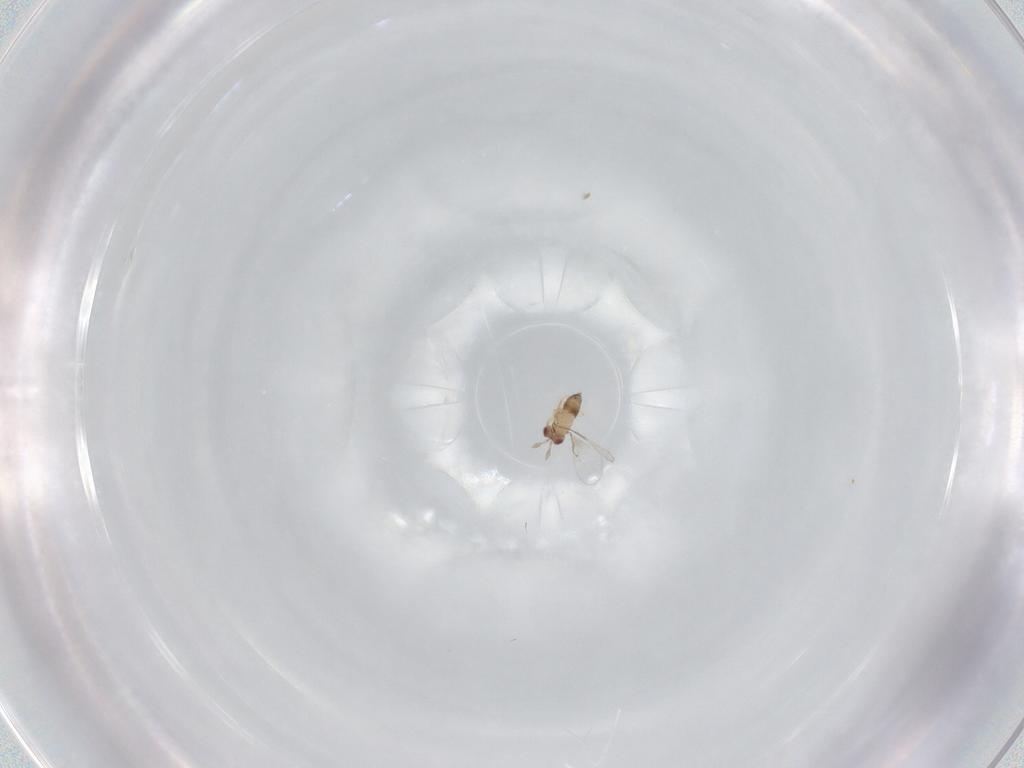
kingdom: Animalia
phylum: Arthropoda
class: Insecta
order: Hymenoptera
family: Trichogrammatidae
